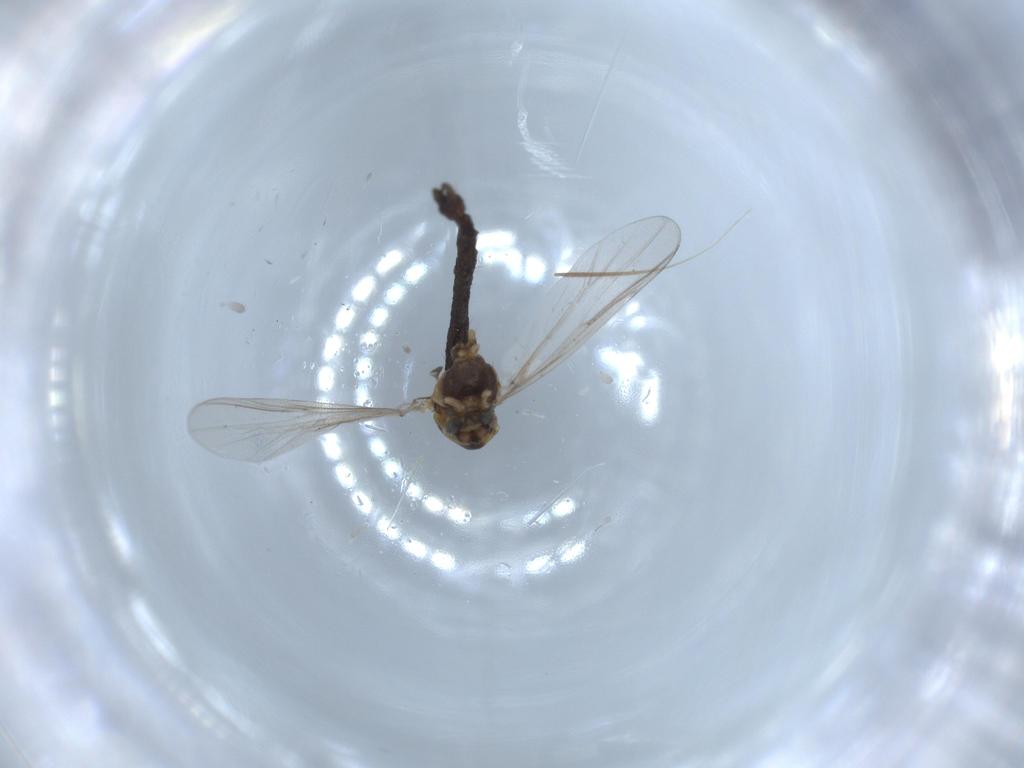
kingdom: Animalia
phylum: Arthropoda
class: Insecta
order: Diptera
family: Chironomidae
